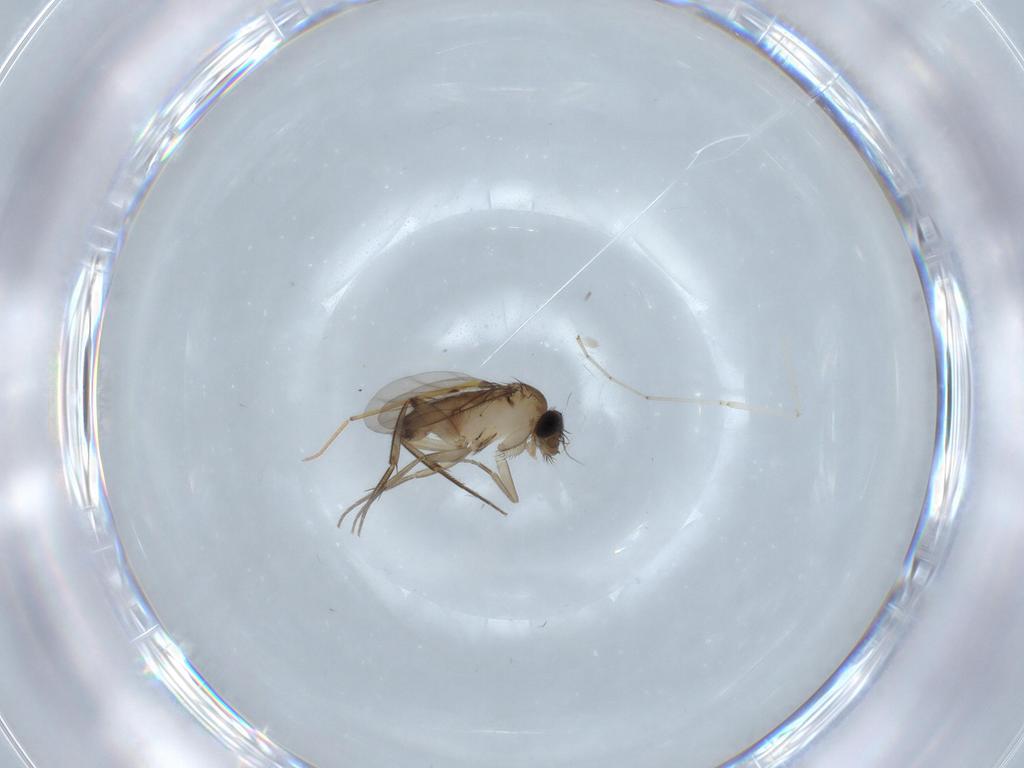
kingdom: Animalia
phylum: Arthropoda
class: Insecta
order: Diptera
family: Phoridae
